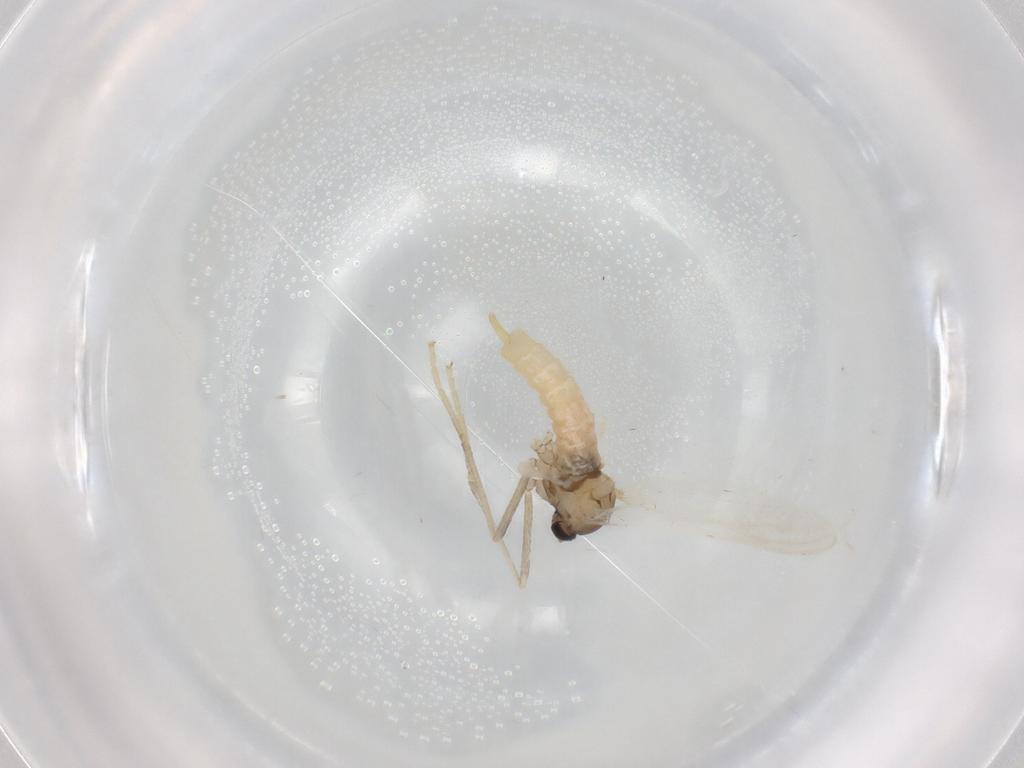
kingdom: Animalia
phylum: Arthropoda
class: Insecta
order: Diptera
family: Cecidomyiidae
